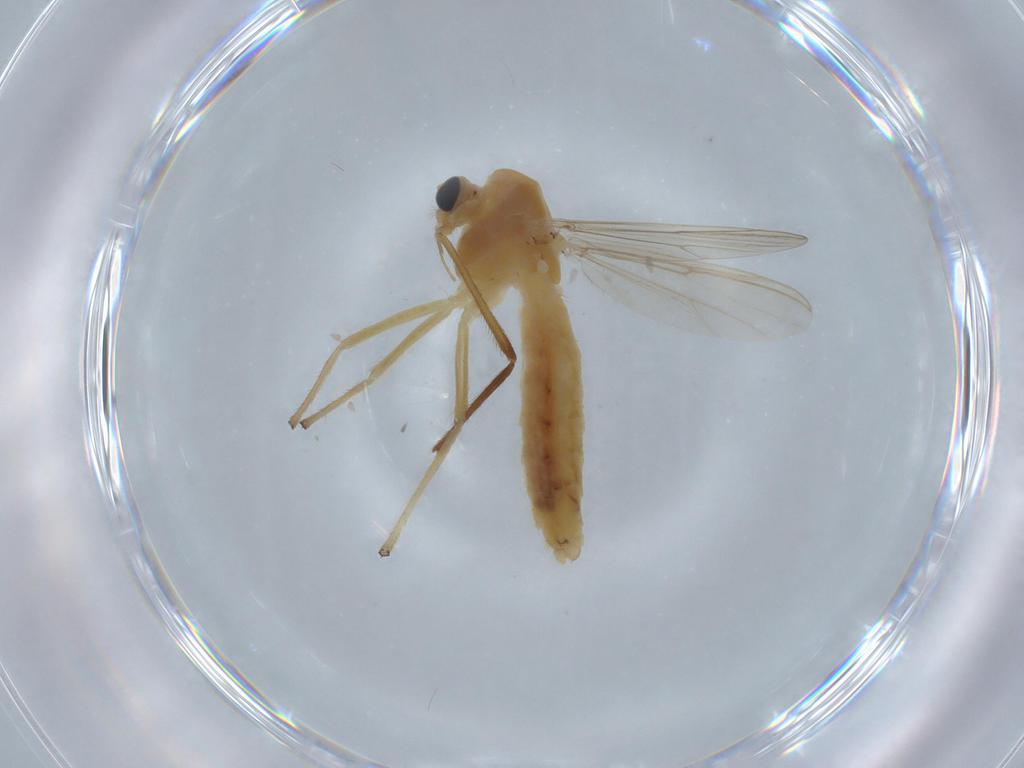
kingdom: Animalia
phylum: Arthropoda
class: Insecta
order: Diptera
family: Chironomidae
